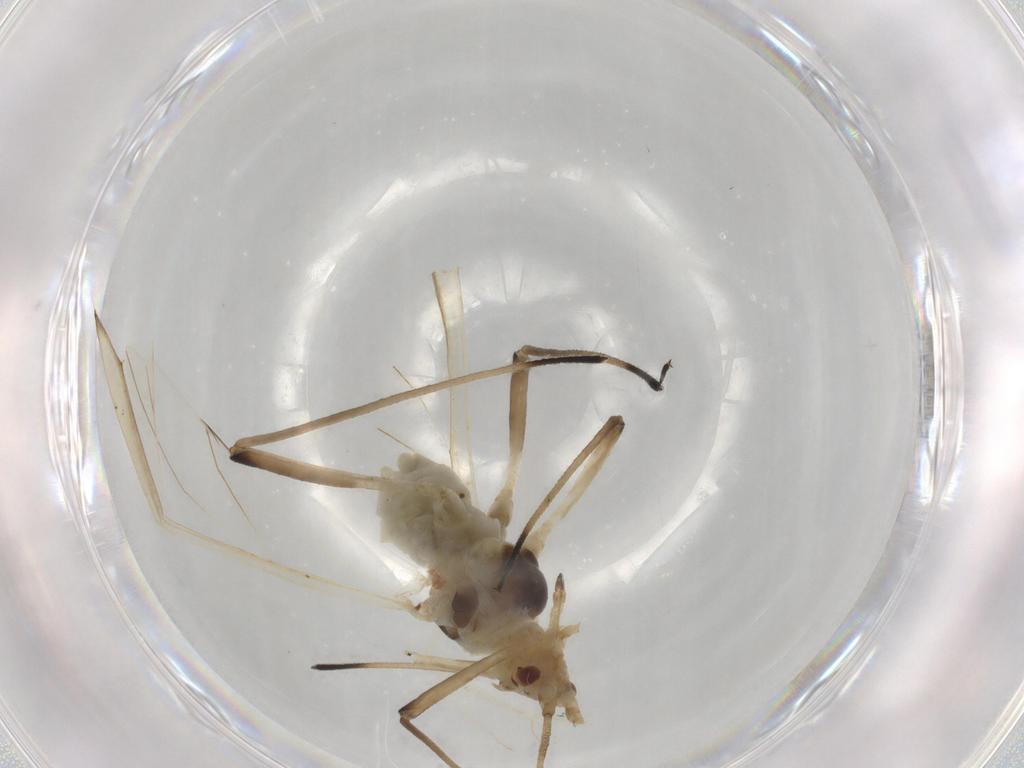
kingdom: Animalia
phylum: Arthropoda
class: Insecta
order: Hemiptera
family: Aphididae
